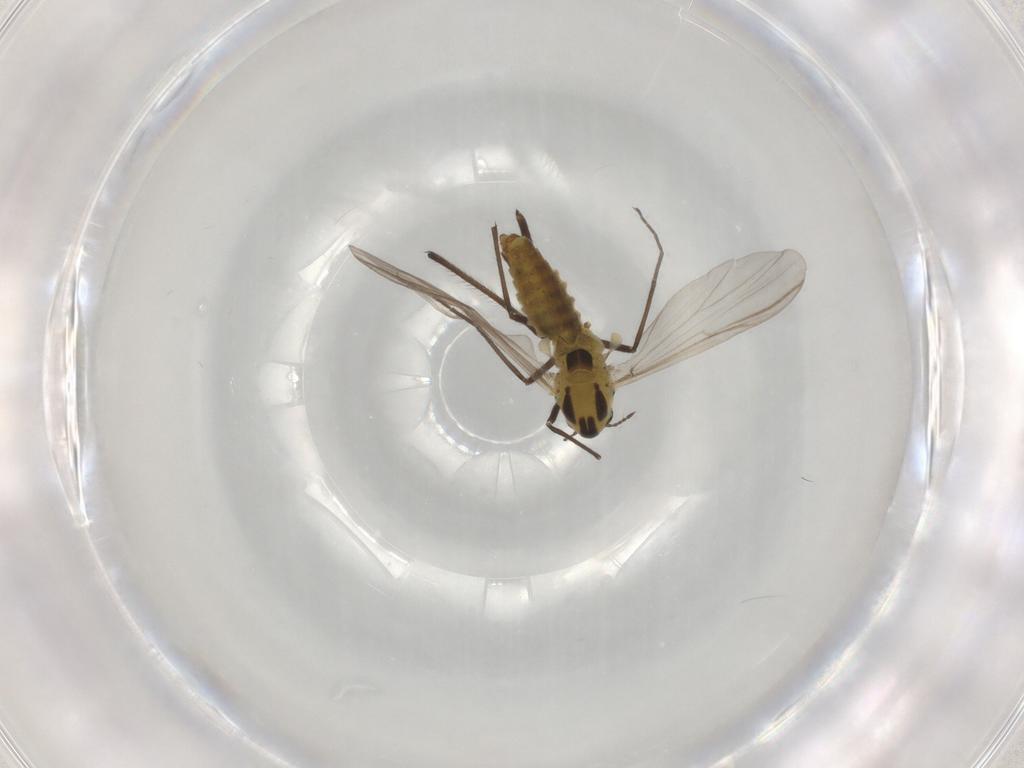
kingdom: Animalia
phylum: Arthropoda
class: Insecta
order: Diptera
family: Chironomidae
